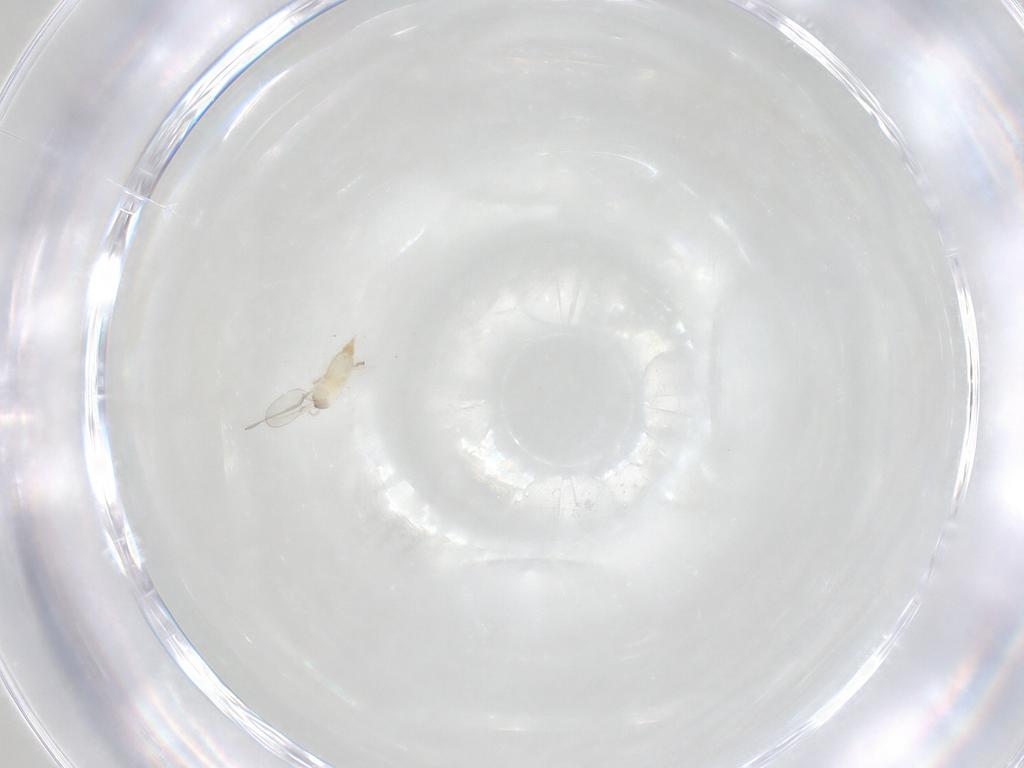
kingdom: Animalia
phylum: Arthropoda
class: Insecta
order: Diptera
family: Cecidomyiidae
